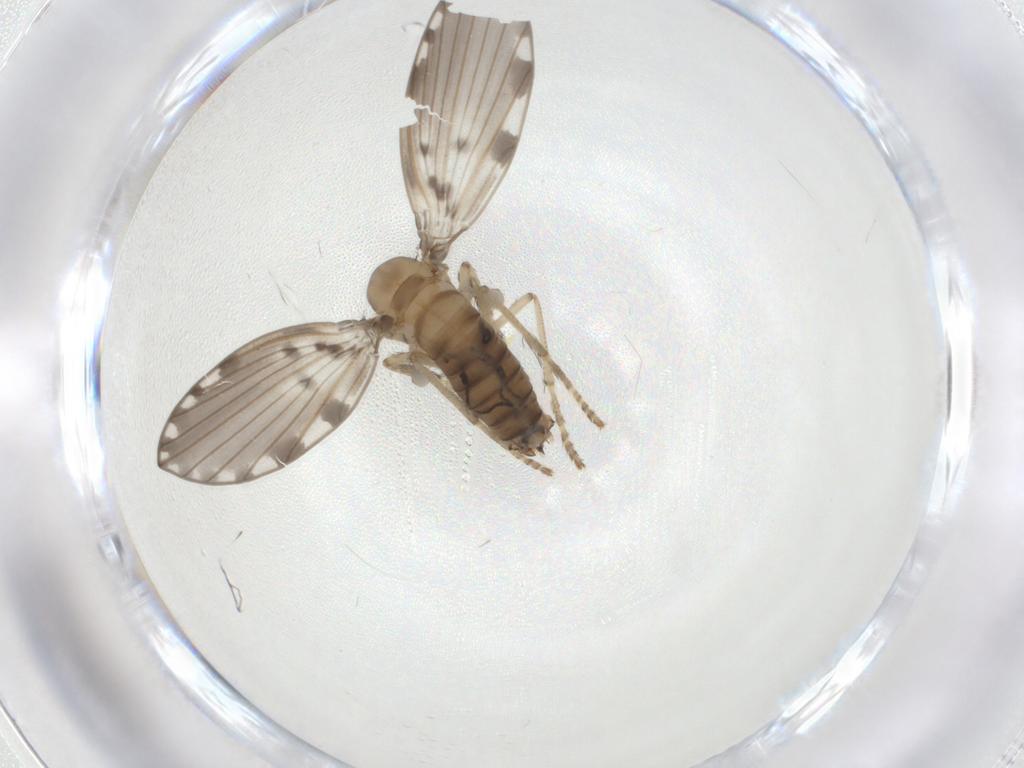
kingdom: Animalia
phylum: Arthropoda
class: Insecta
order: Diptera
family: Psychodidae
